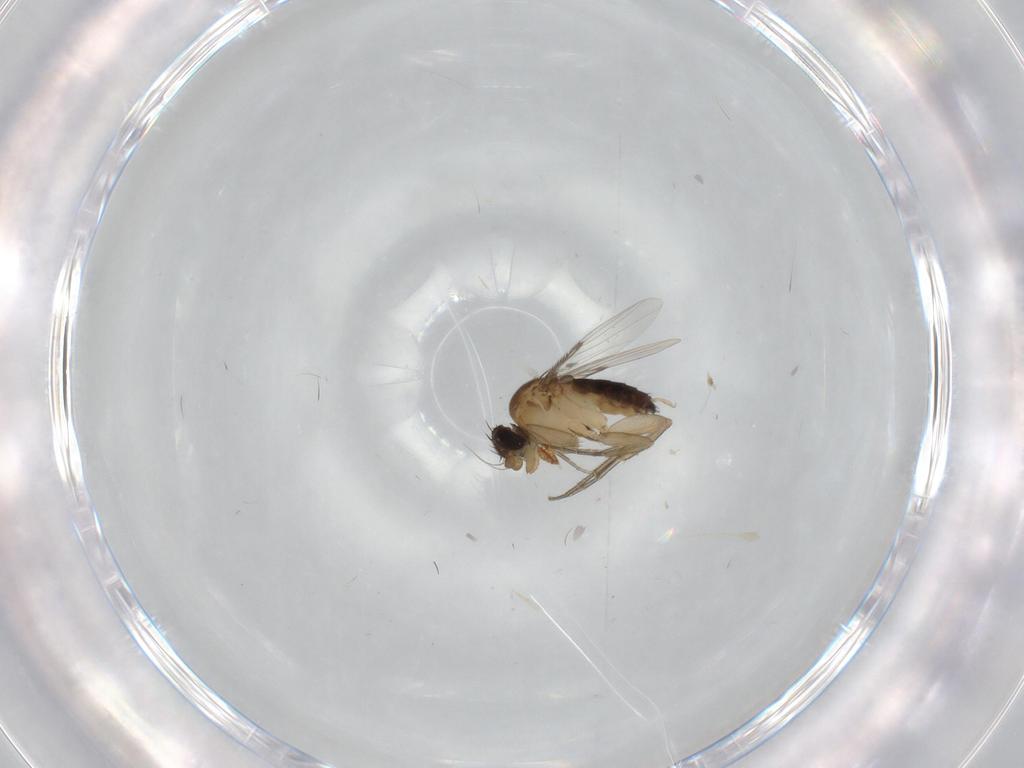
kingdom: Animalia
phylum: Arthropoda
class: Insecta
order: Diptera
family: Cecidomyiidae
